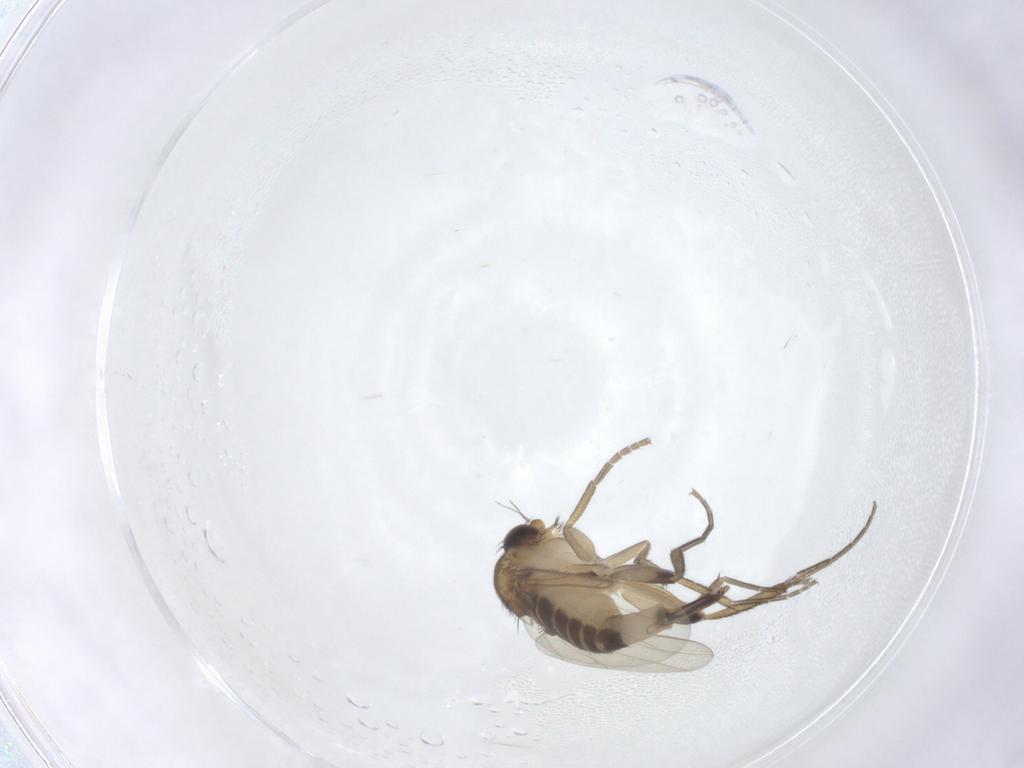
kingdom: Animalia
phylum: Arthropoda
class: Insecta
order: Diptera
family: Phoridae
